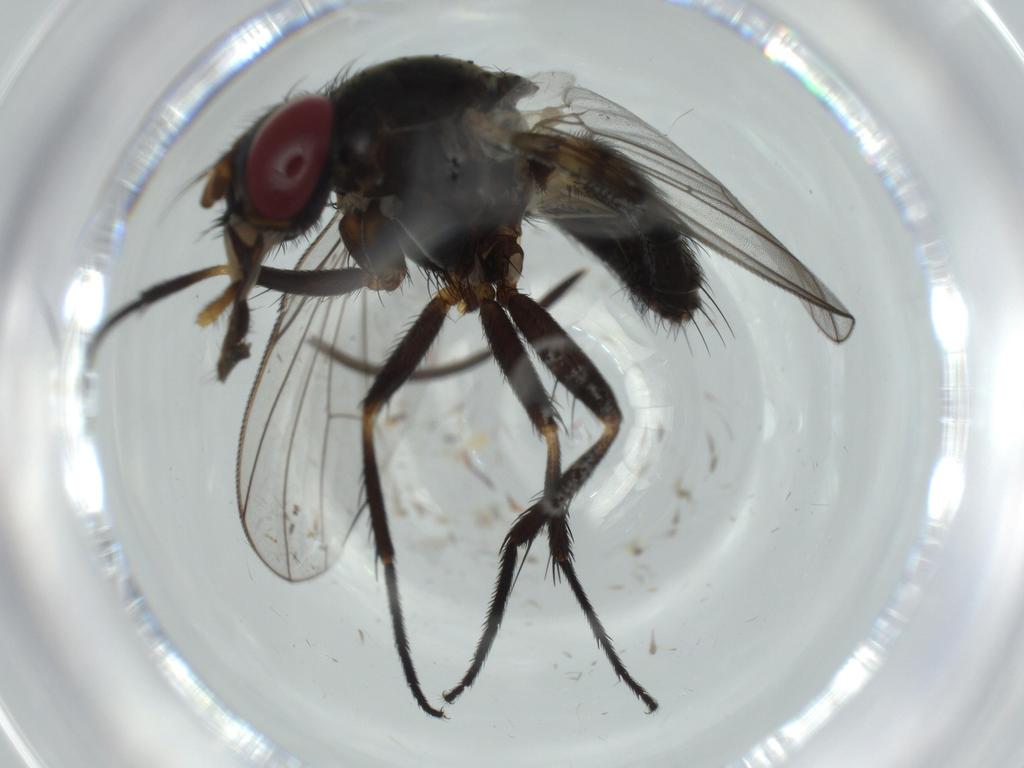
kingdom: Animalia
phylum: Arthropoda
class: Insecta
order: Diptera
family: Fannia
